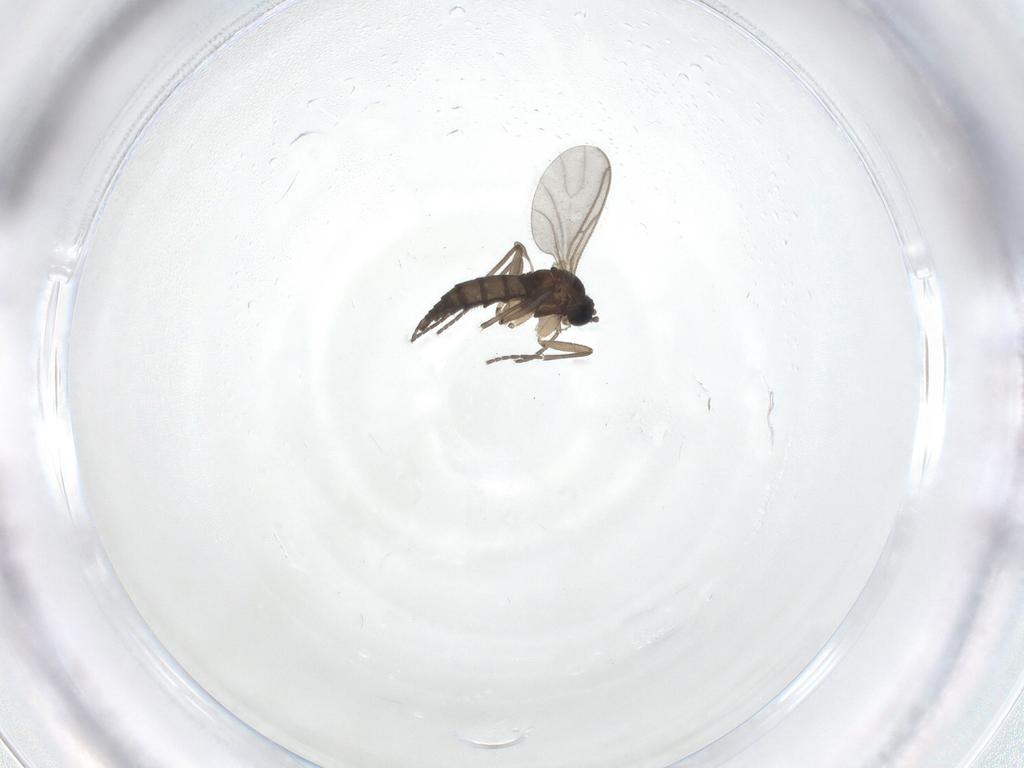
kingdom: Animalia
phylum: Arthropoda
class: Insecta
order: Diptera
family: Sciaridae
